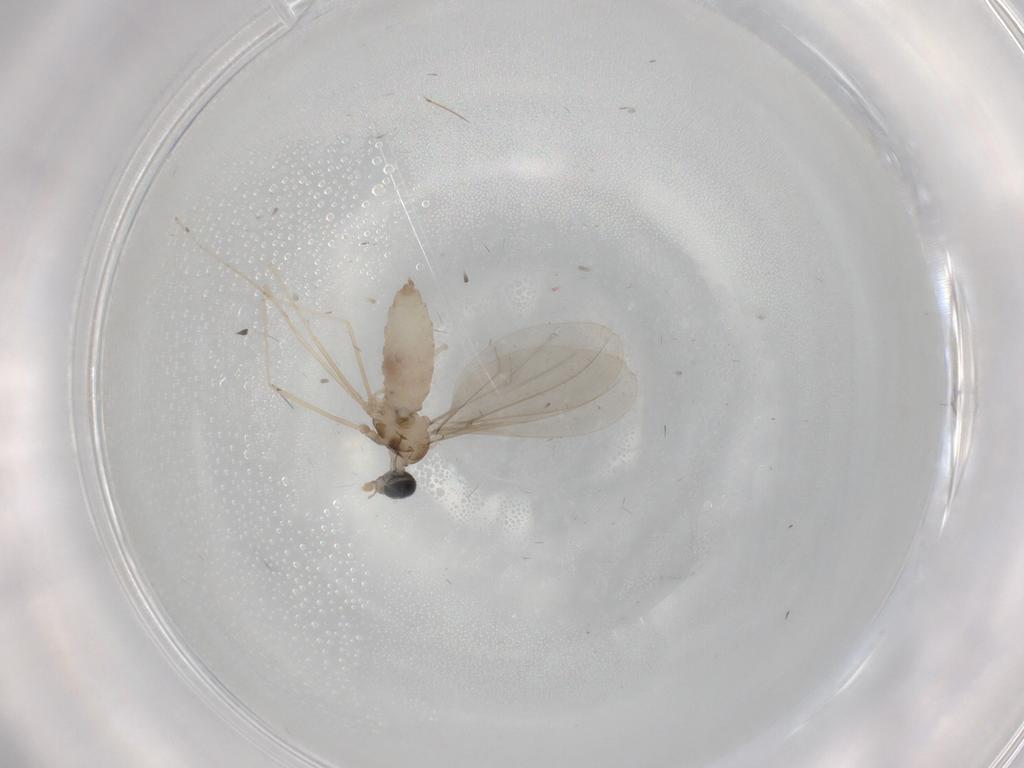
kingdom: Animalia
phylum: Arthropoda
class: Insecta
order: Diptera
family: Cecidomyiidae
